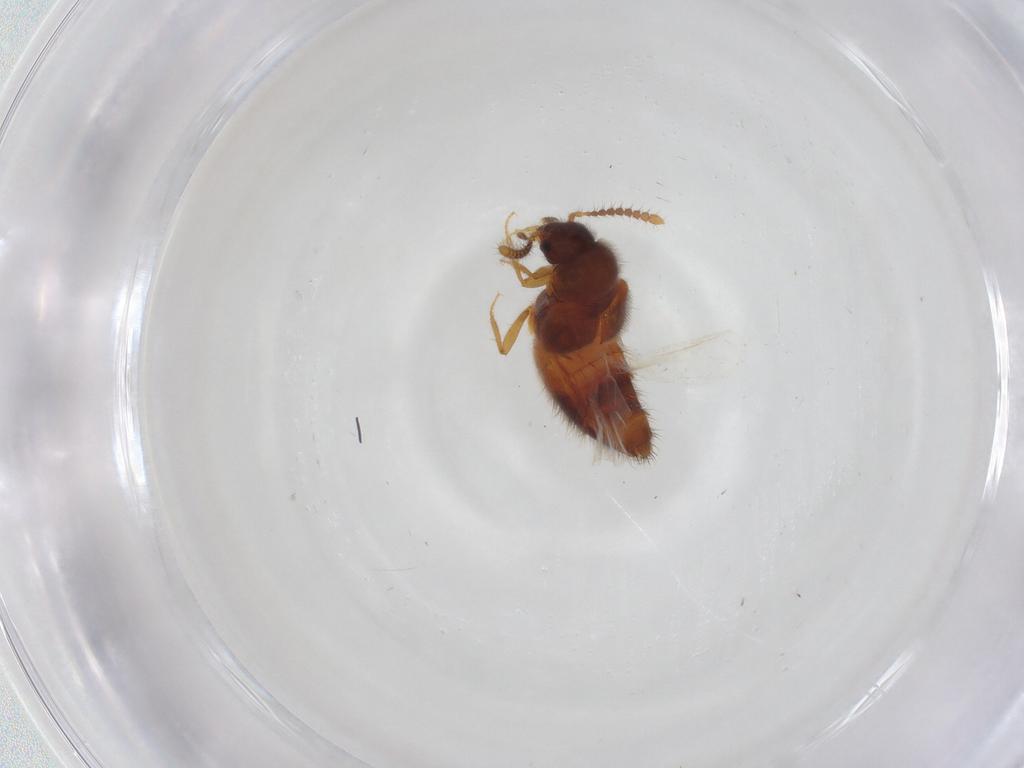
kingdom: Animalia
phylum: Arthropoda
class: Insecta
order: Coleoptera
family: Staphylinidae
